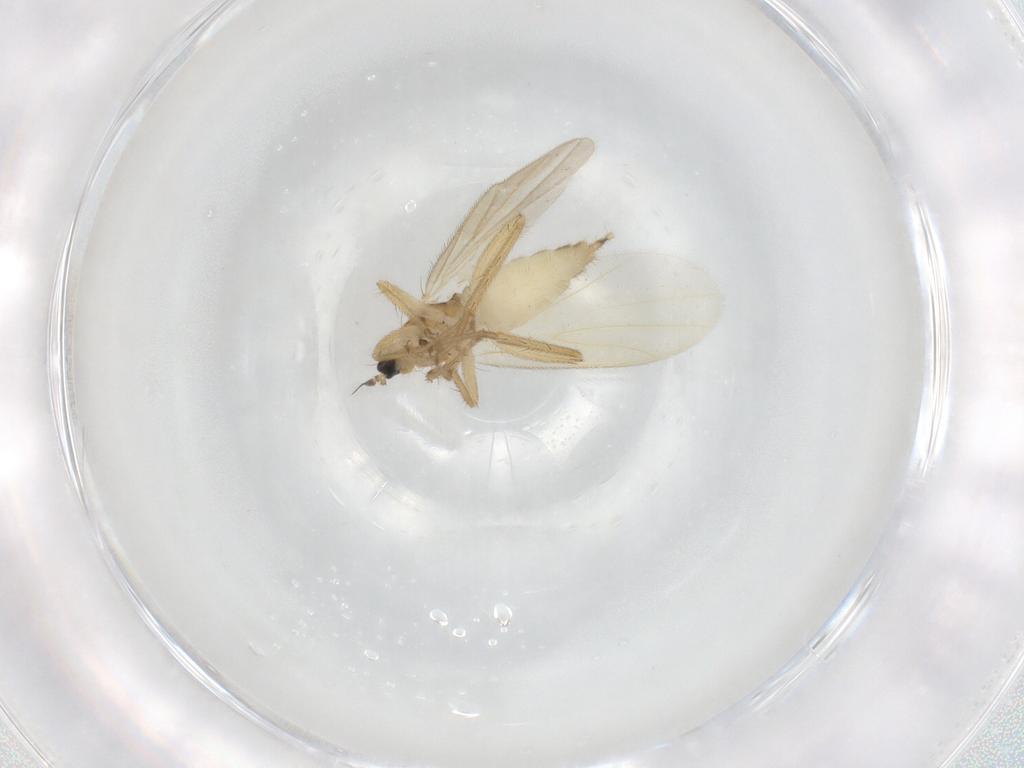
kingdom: Animalia
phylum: Arthropoda
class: Insecta
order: Diptera
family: Hybotidae
